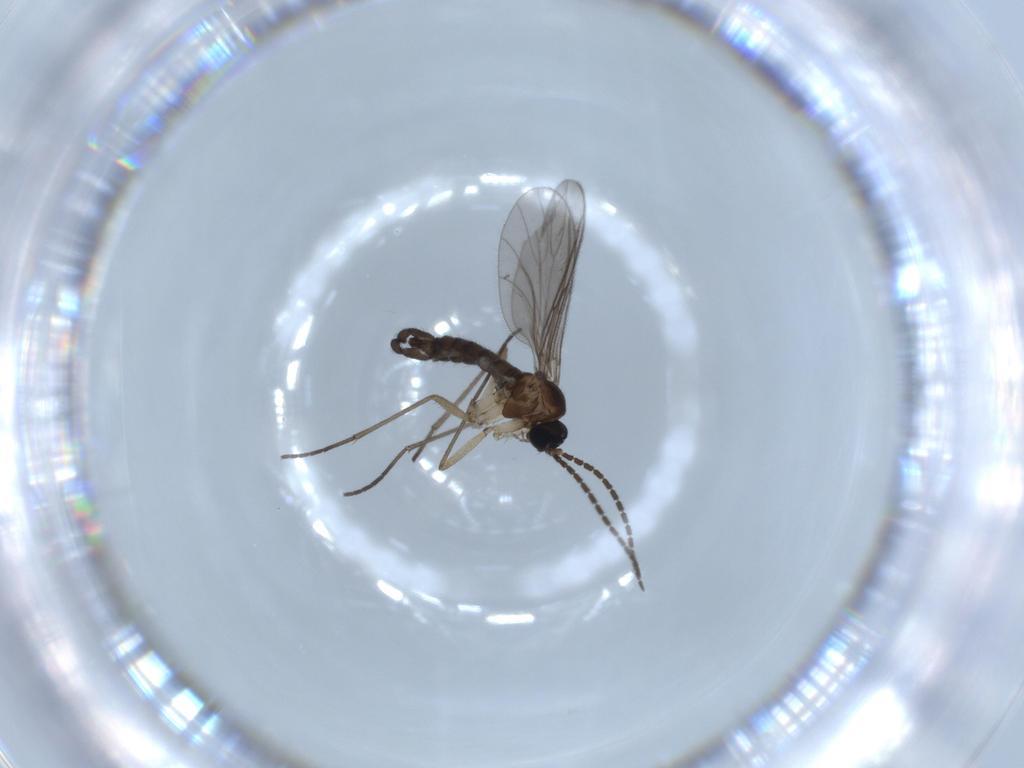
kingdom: Animalia
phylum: Arthropoda
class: Insecta
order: Diptera
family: Sciaridae
